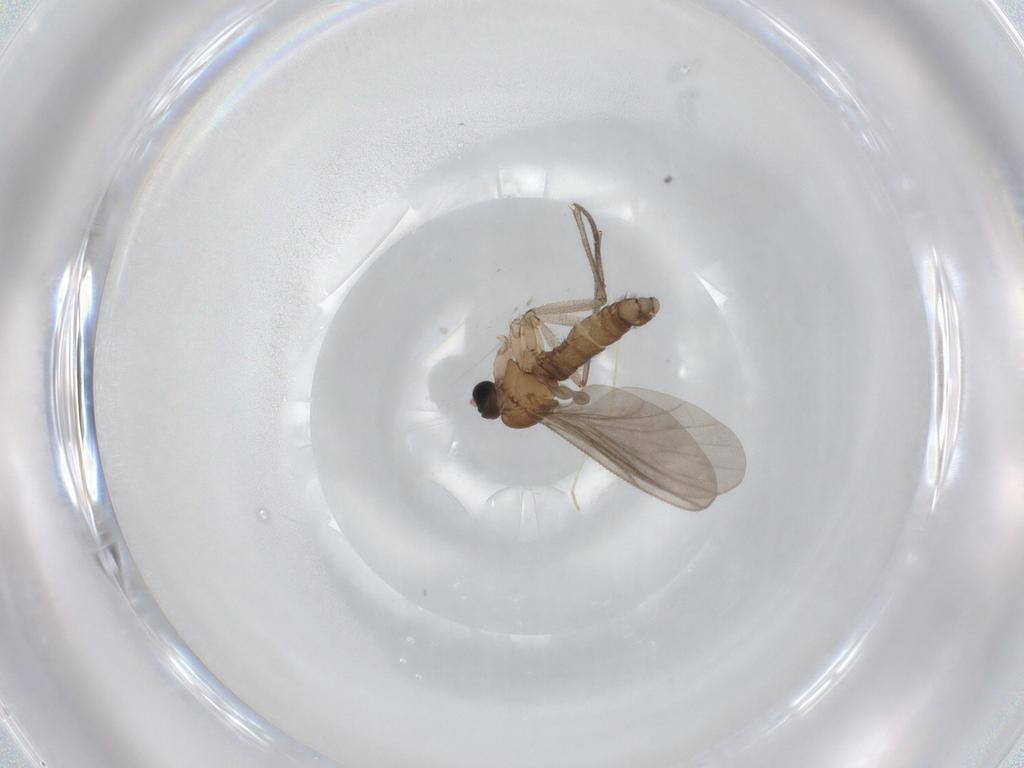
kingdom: Animalia
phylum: Arthropoda
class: Insecta
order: Diptera
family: Sciaridae
